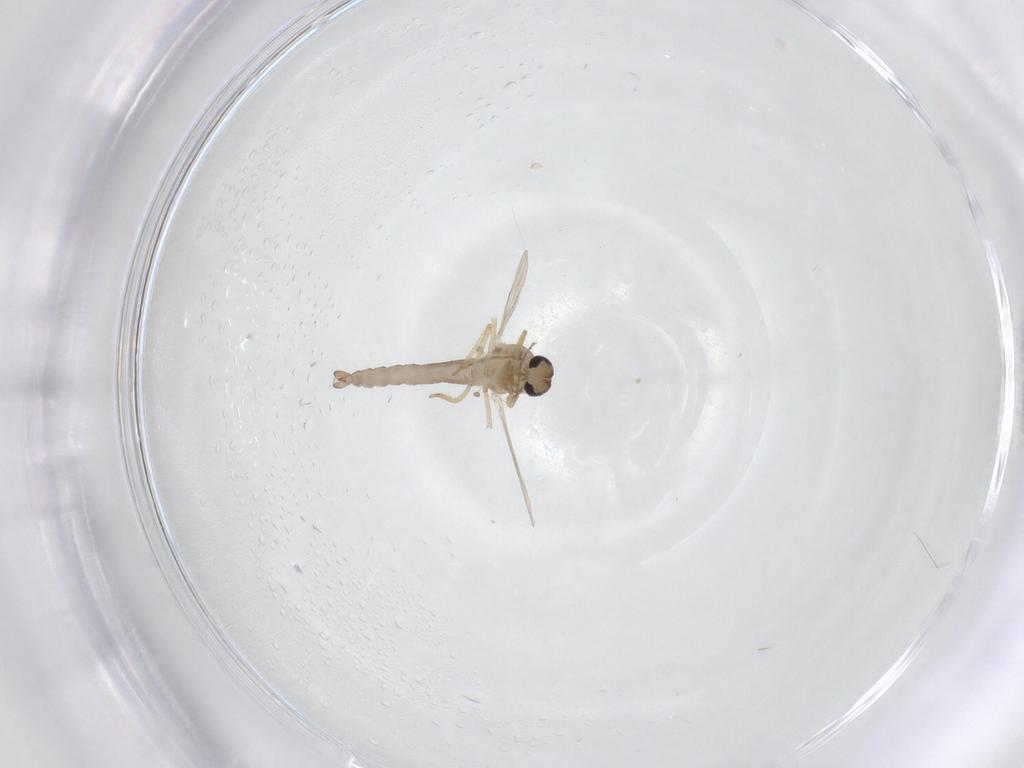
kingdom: Animalia
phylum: Arthropoda
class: Insecta
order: Diptera
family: Ceratopogonidae
